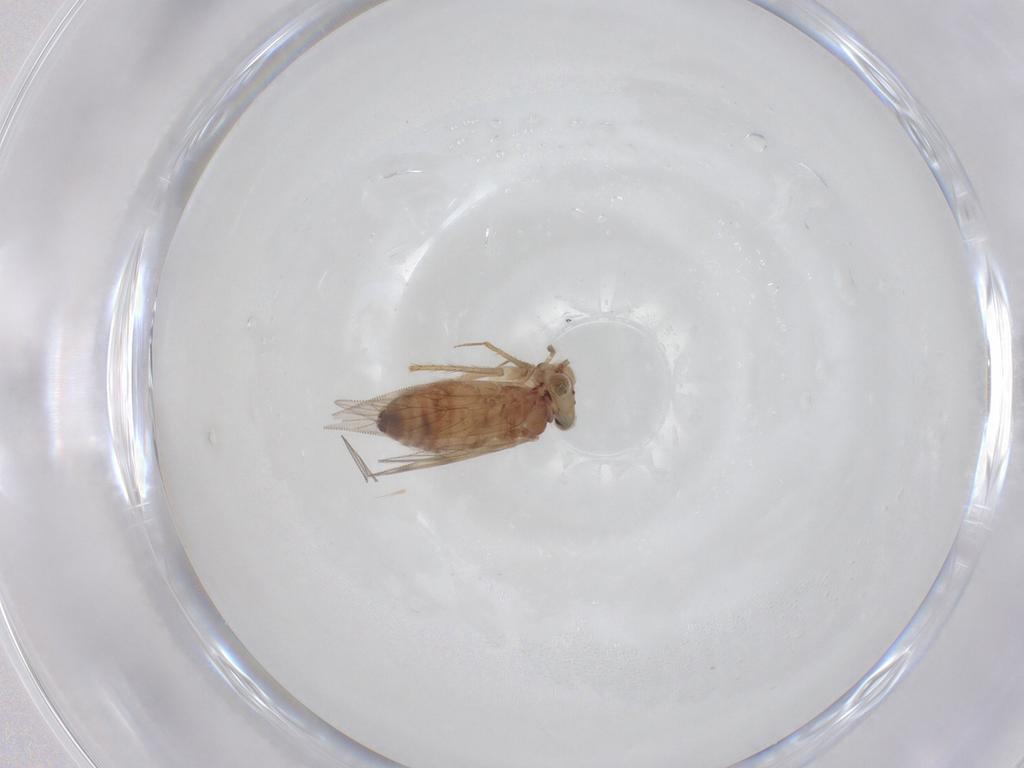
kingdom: Animalia
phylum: Arthropoda
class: Insecta
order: Psocodea
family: Lepidopsocidae
